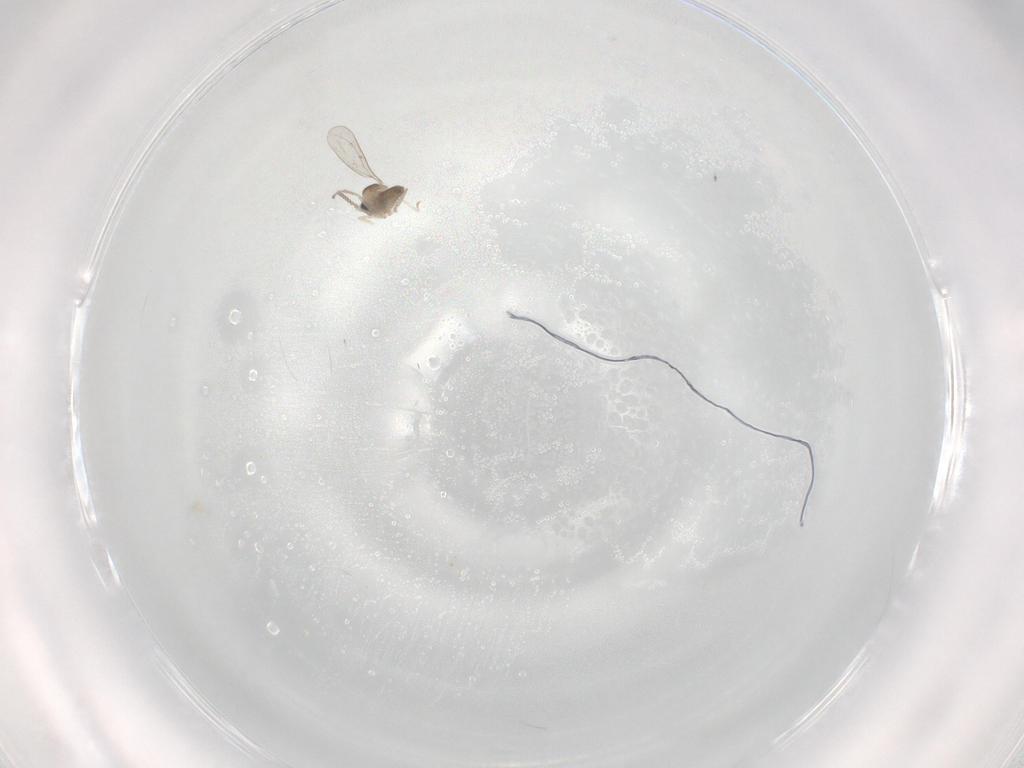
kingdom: Animalia
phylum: Arthropoda
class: Insecta
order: Diptera
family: Cecidomyiidae
